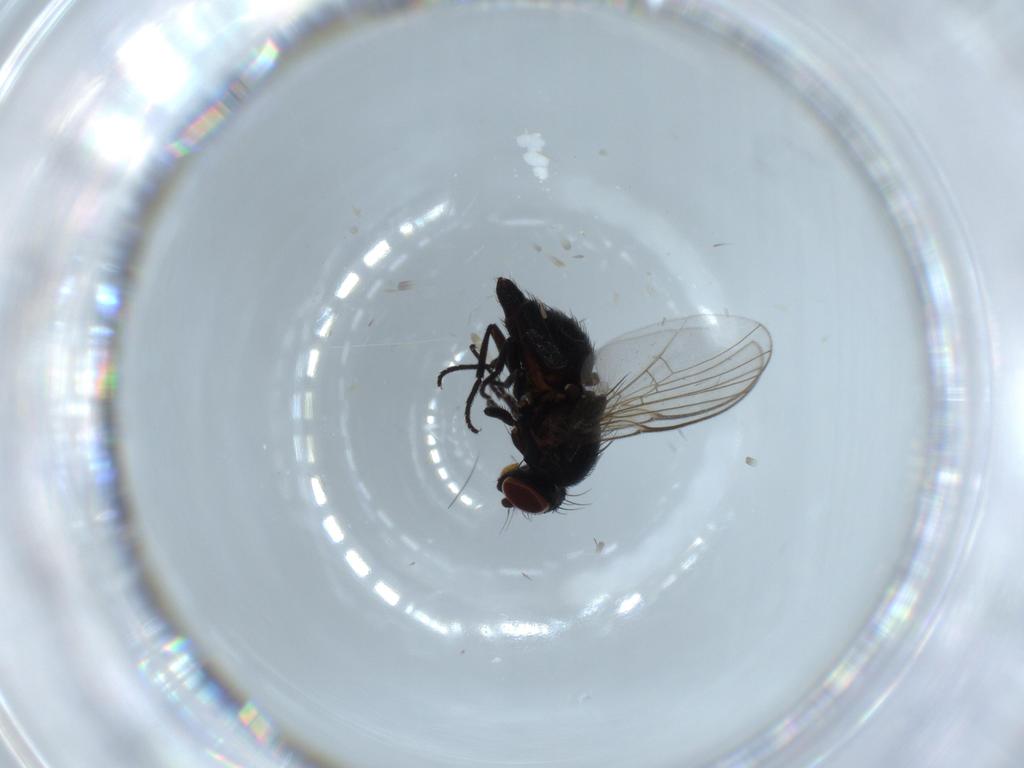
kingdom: Animalia
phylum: Arthropoda
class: Insecta
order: Diptera
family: Agromyzidae
